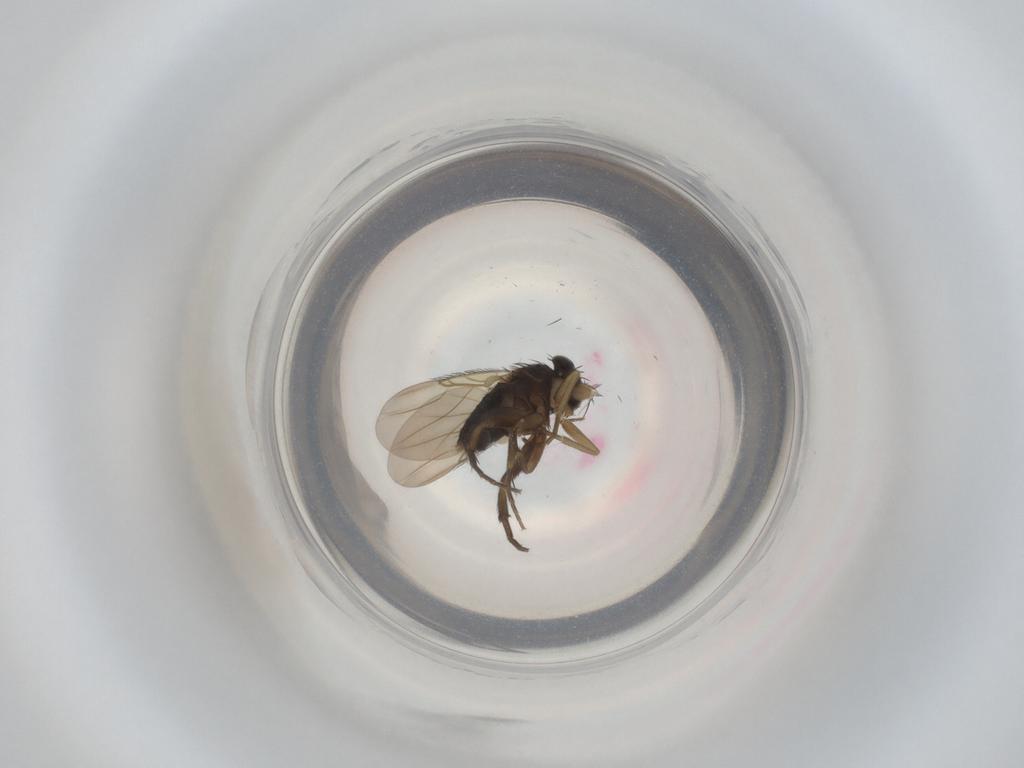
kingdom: Animalia
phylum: Arthropoda
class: Insecta
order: Diptera
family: Phoridae
